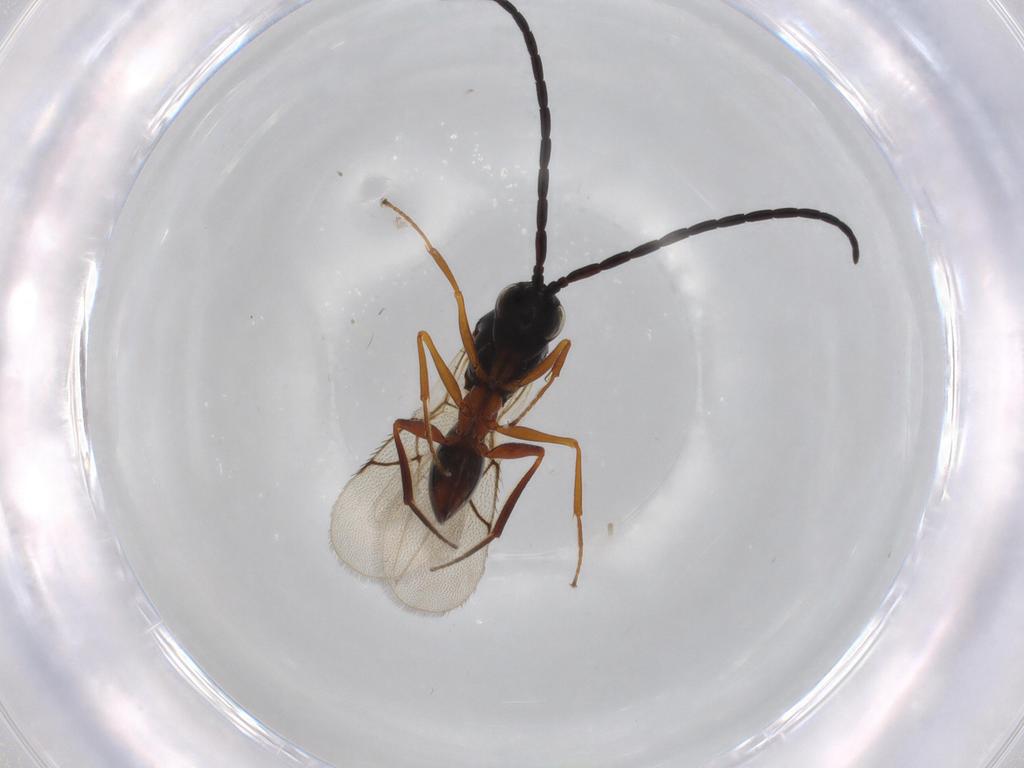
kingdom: Animalia
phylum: Arthropoda
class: Insecta
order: Hymenoptera
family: Figitidae
